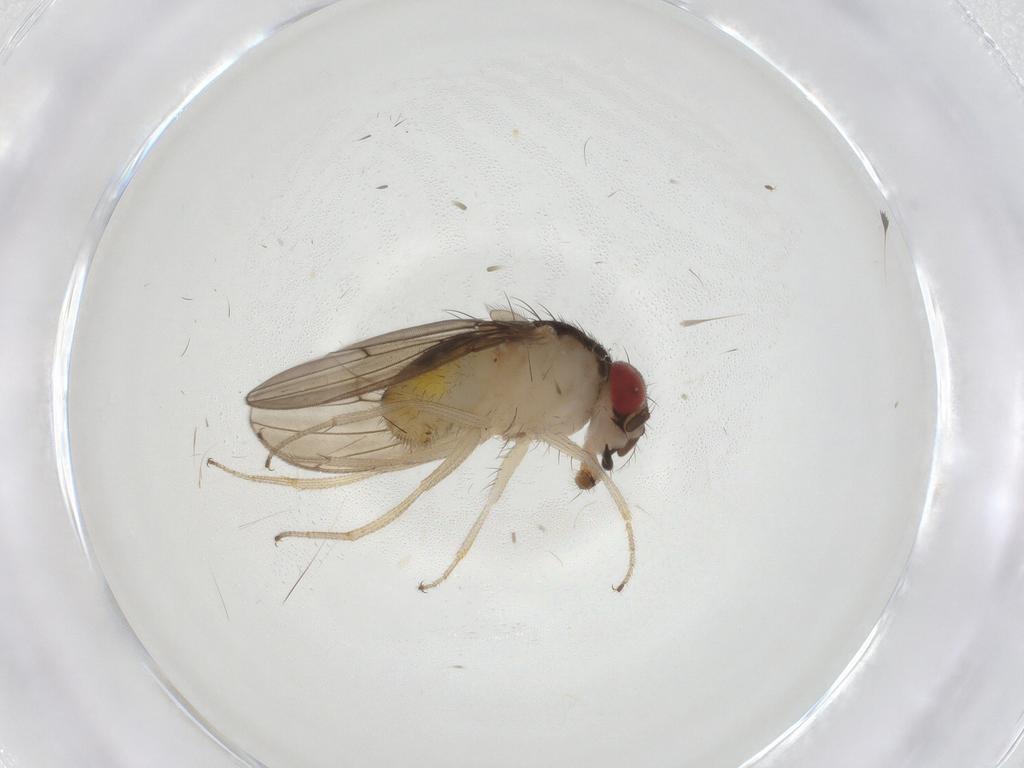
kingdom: Animalia
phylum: Arthropoda
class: Insecta
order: Diptera
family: Drosophilidae
